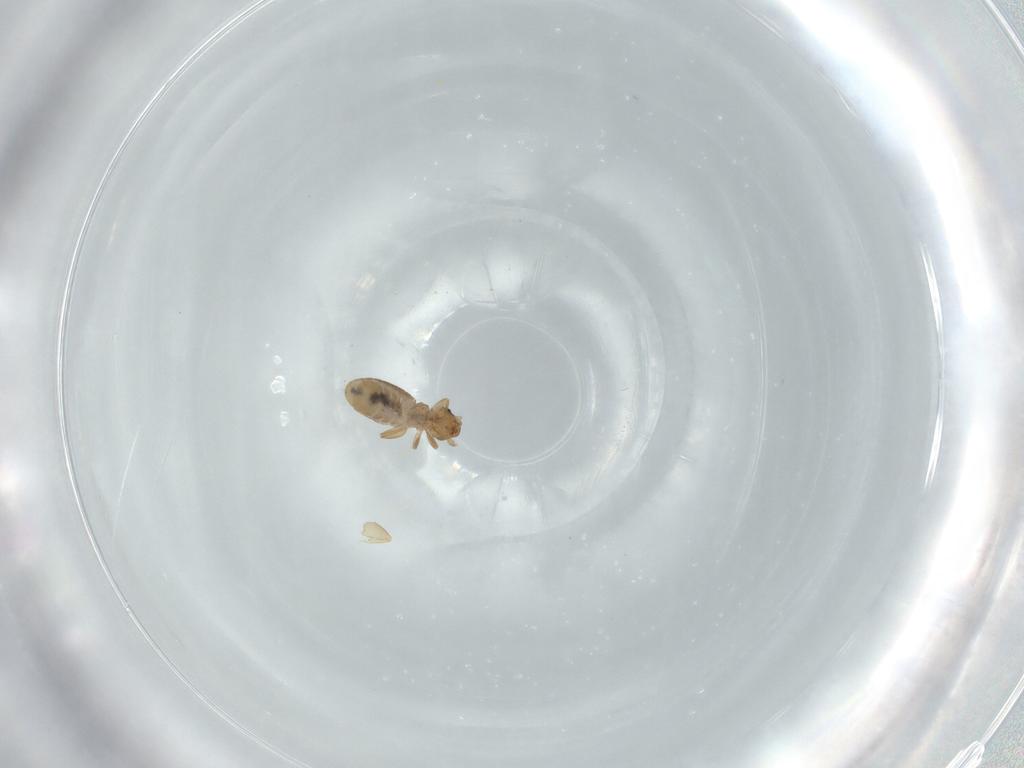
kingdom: Animalia
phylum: Arthropoda
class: Insecta
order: Psocodea
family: Liposcelididae
